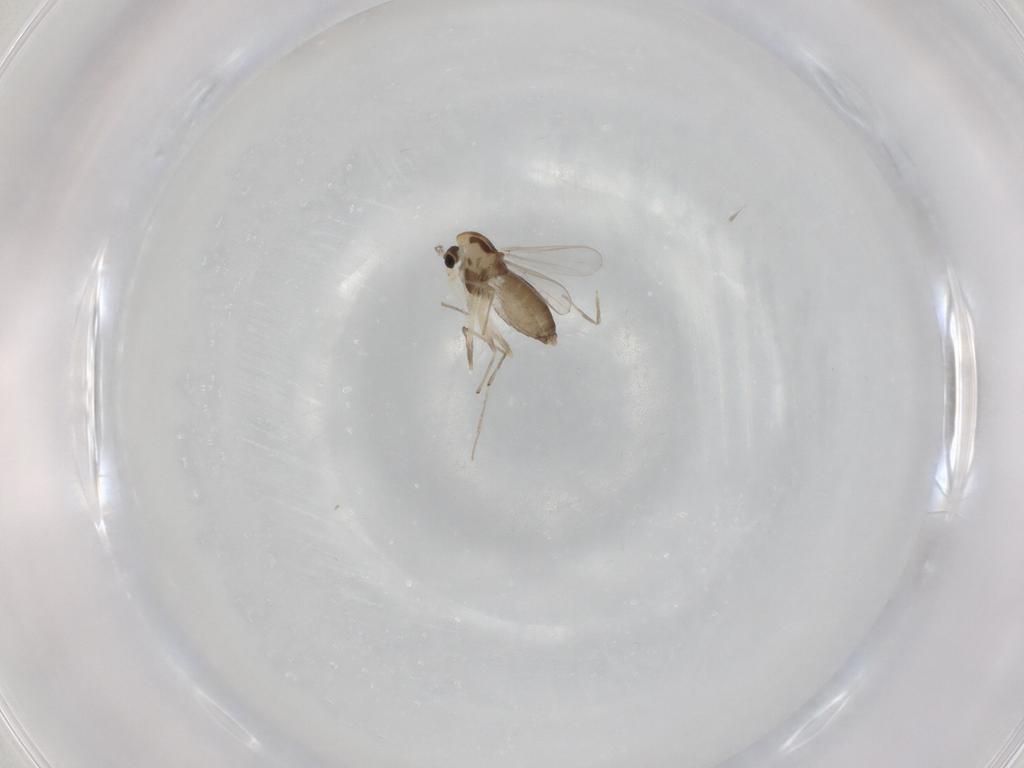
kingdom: Animalia
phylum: Arthropoda
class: Insecta
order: Diptera
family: Chironomidae
